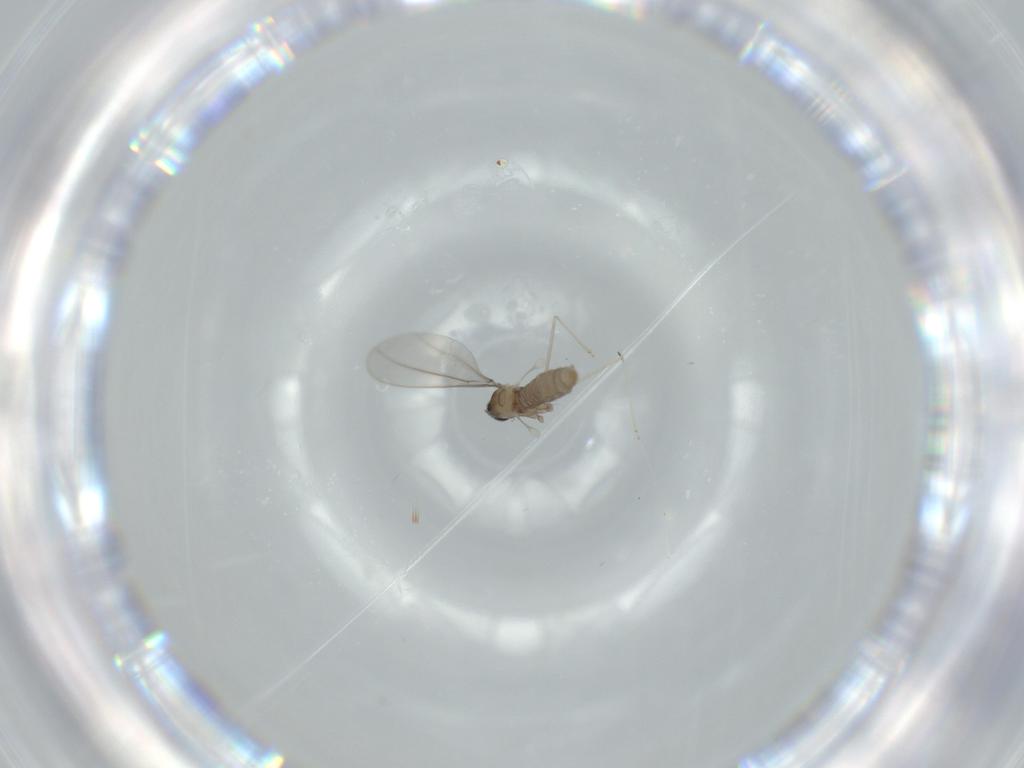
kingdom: Animalia
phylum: Arthropoda
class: Insecta
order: Diptera
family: Cecidomyiidae
